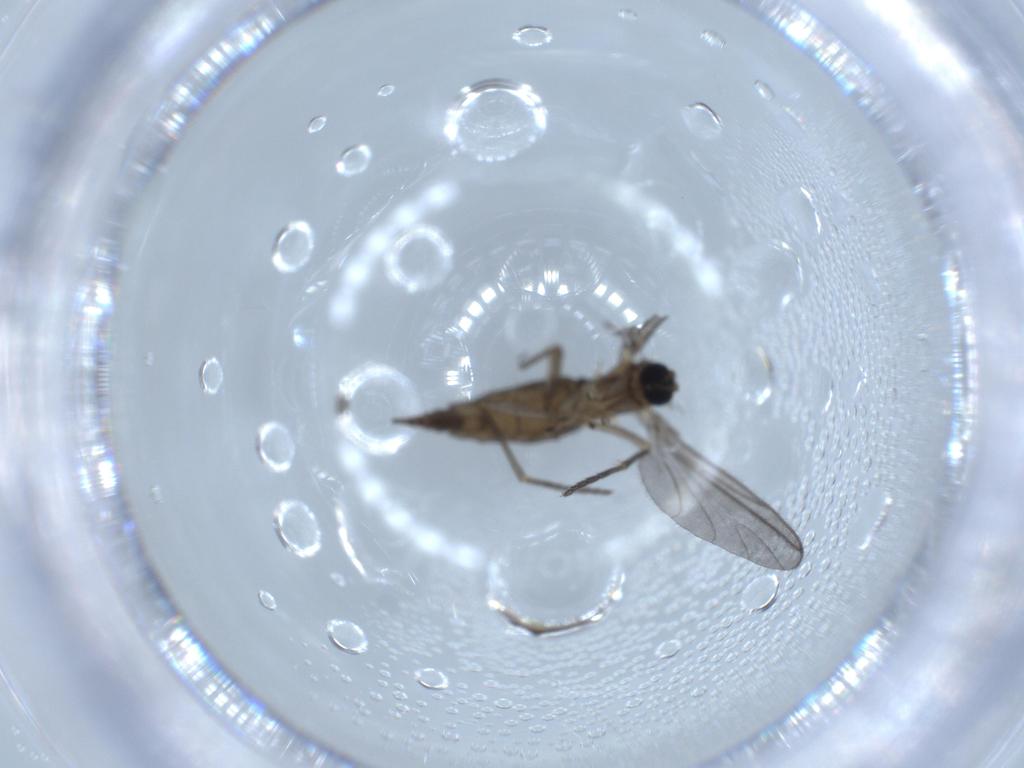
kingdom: Animalia
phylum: Arthropoda
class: Insecta
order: Diptera
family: Sciaridae
